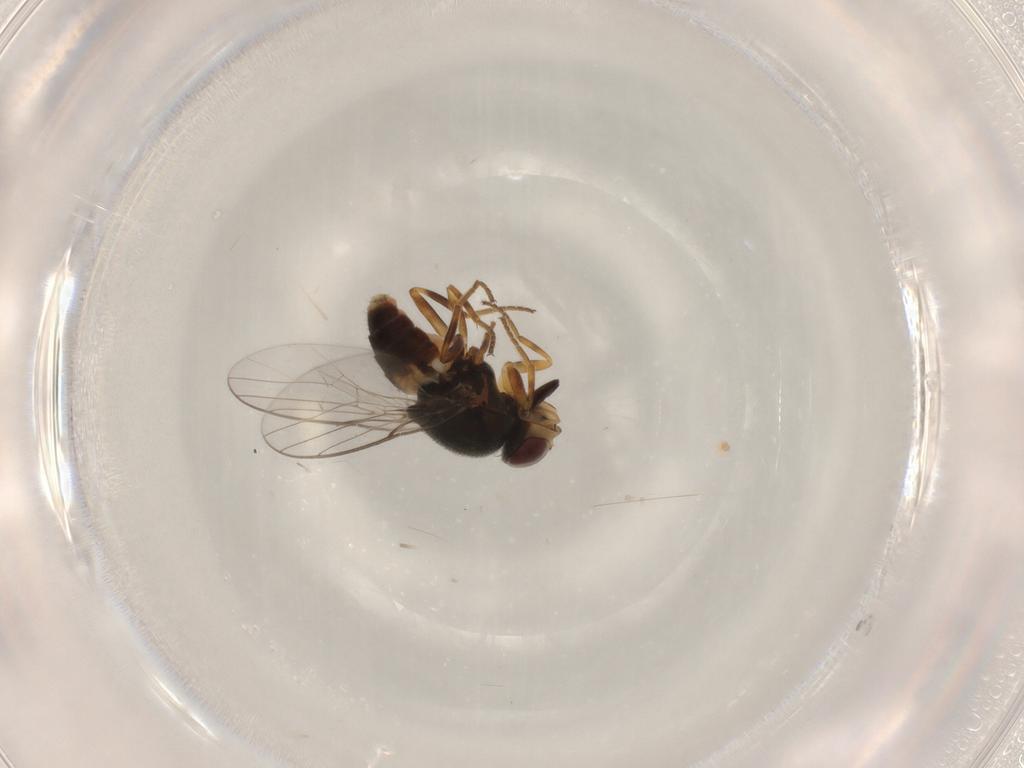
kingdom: Animalia
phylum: Arthropoda
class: Insecta
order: Diptera
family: Chloropidae
